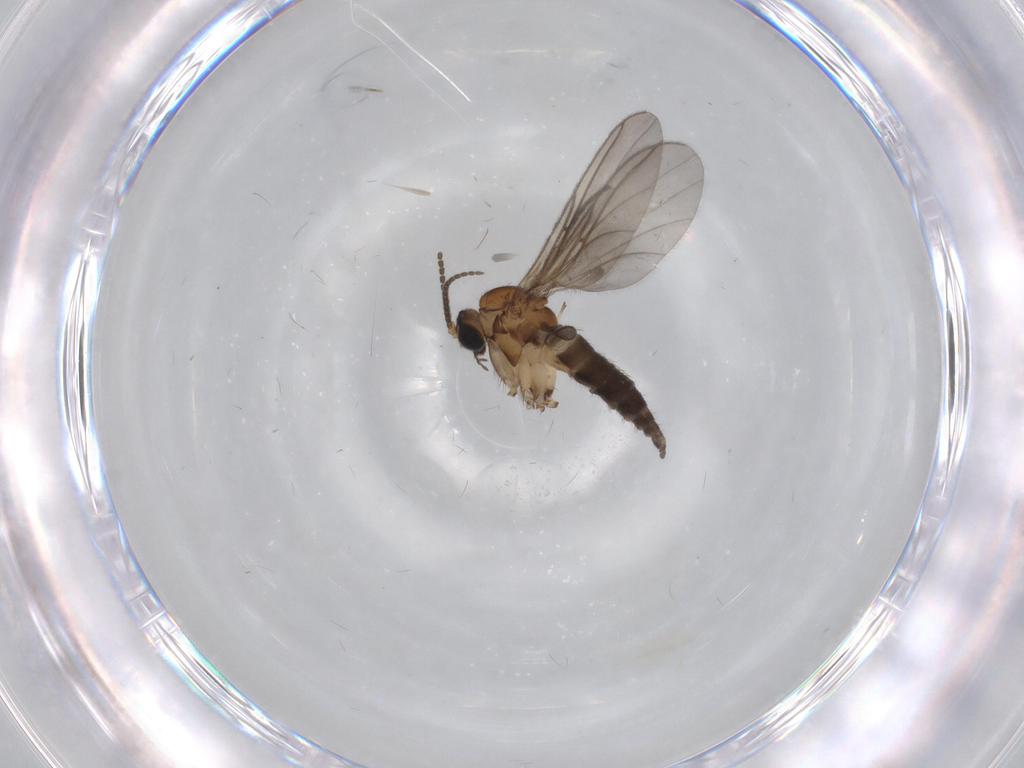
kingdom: Animalia
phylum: Arthropoda
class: Insecta
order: Diptera
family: Sciaridae
